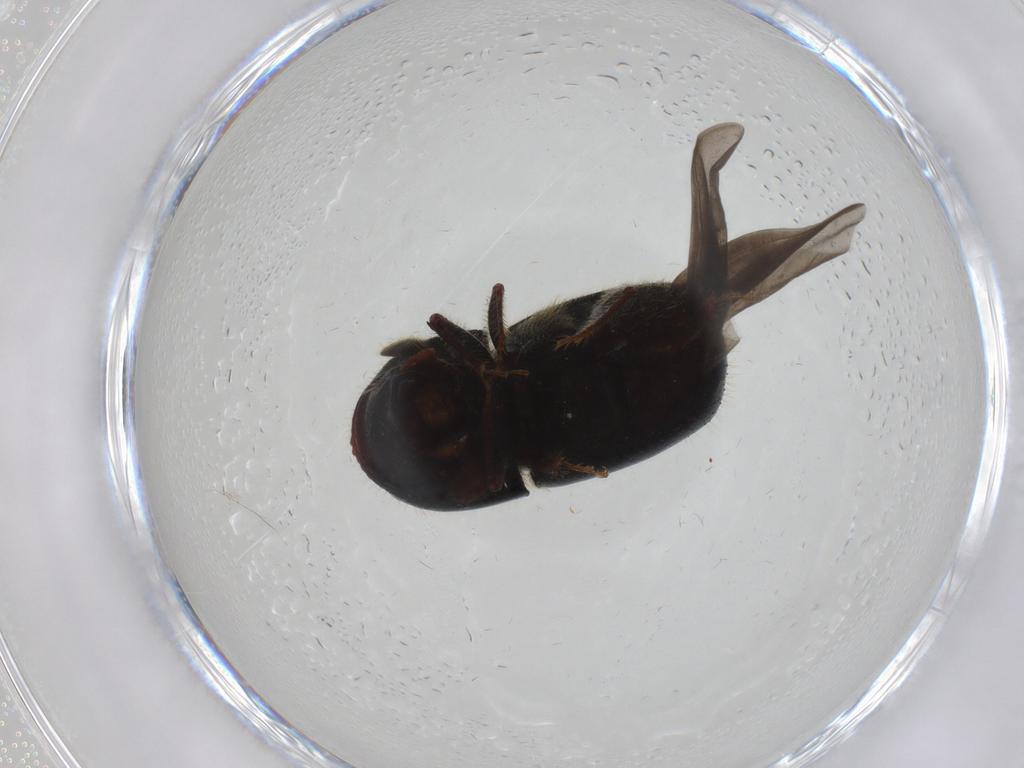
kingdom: Animalia
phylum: Arthropoda
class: Insecta
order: Coleoptera
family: Curculionidae
